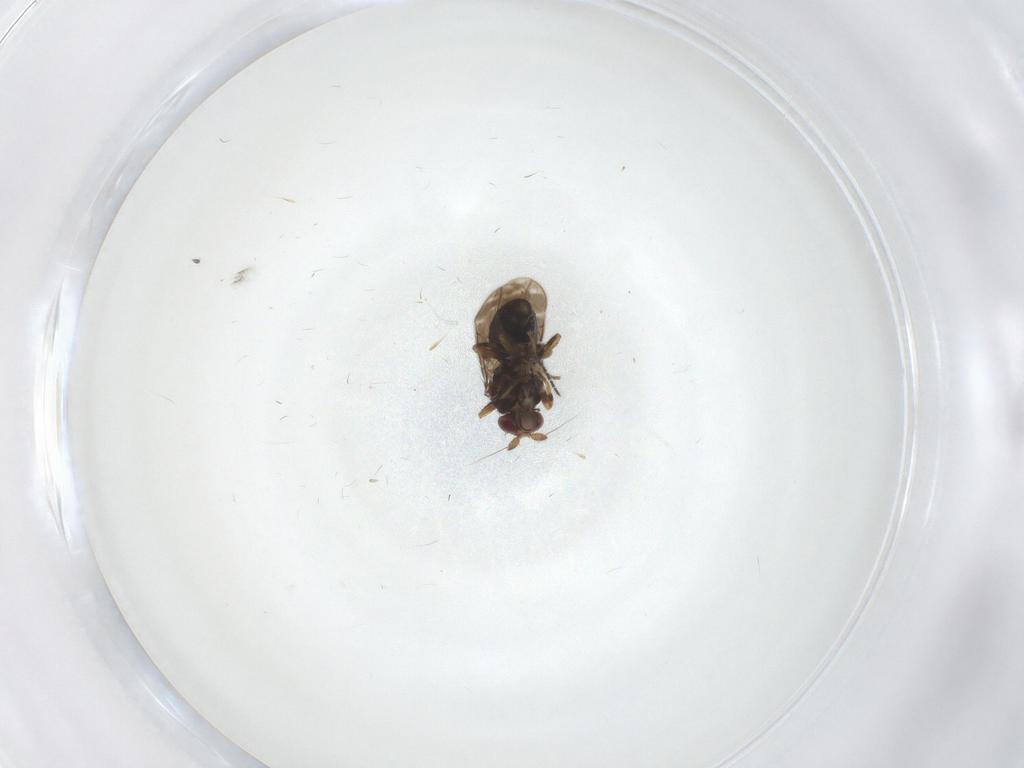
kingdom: Animalia
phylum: Arthropoda
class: Insecta
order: Diptera
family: Sphaeroceridae
